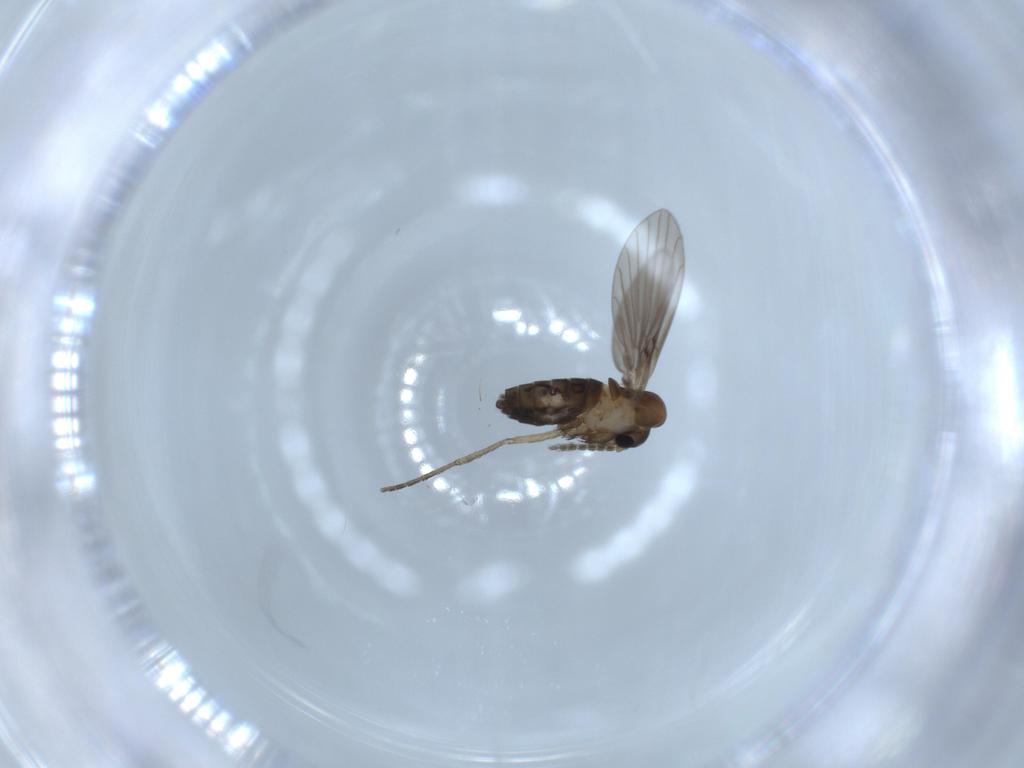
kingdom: Animalia
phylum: Arthropoda
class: Insecta
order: Diptera
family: Psychodidae
